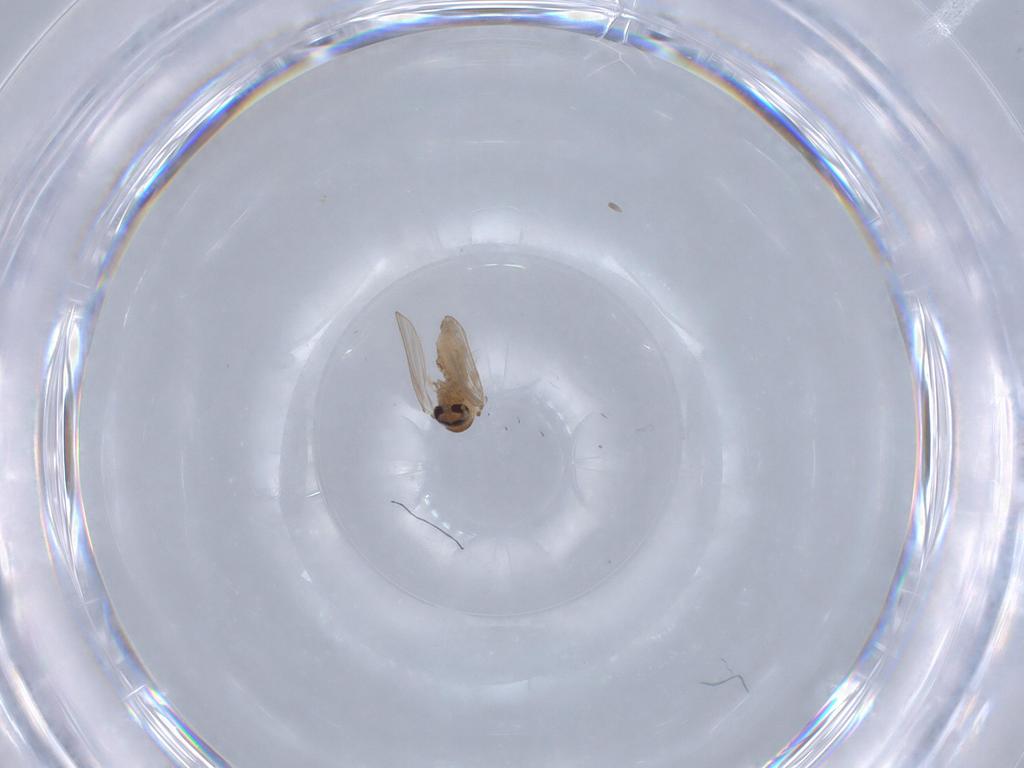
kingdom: Animalia
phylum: Arthropoda
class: Insecta
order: Diptera
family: Psychodidae
